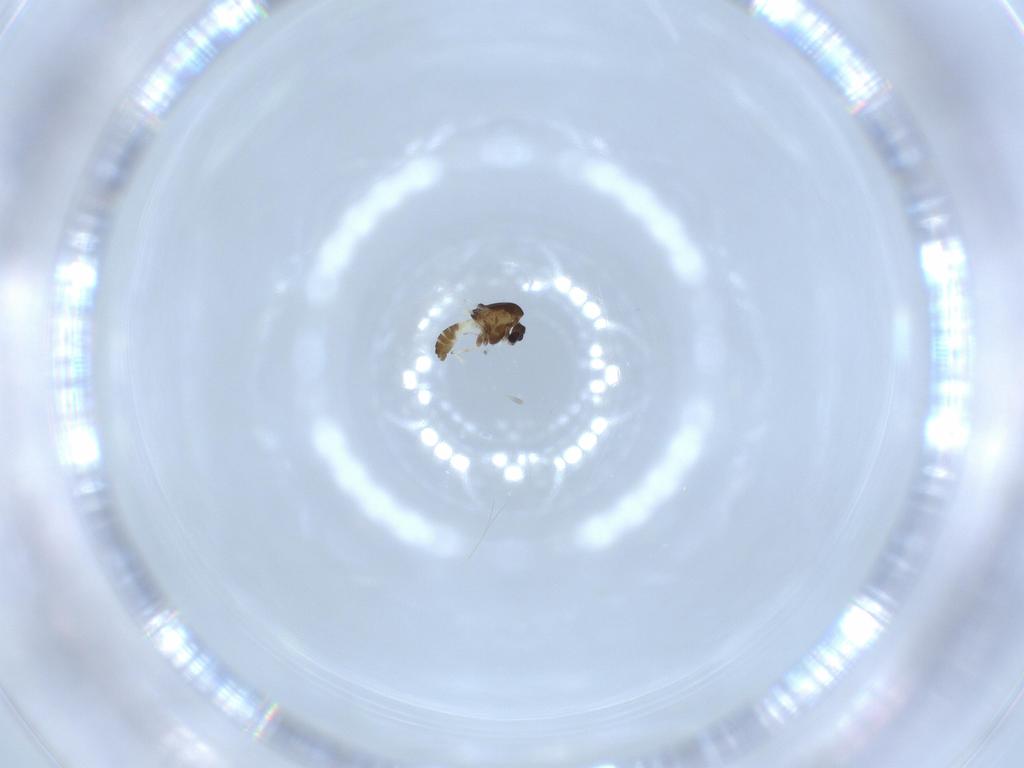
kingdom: Animalia
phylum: Arthropoda
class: Insecta
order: Diptera
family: Chironomidae
